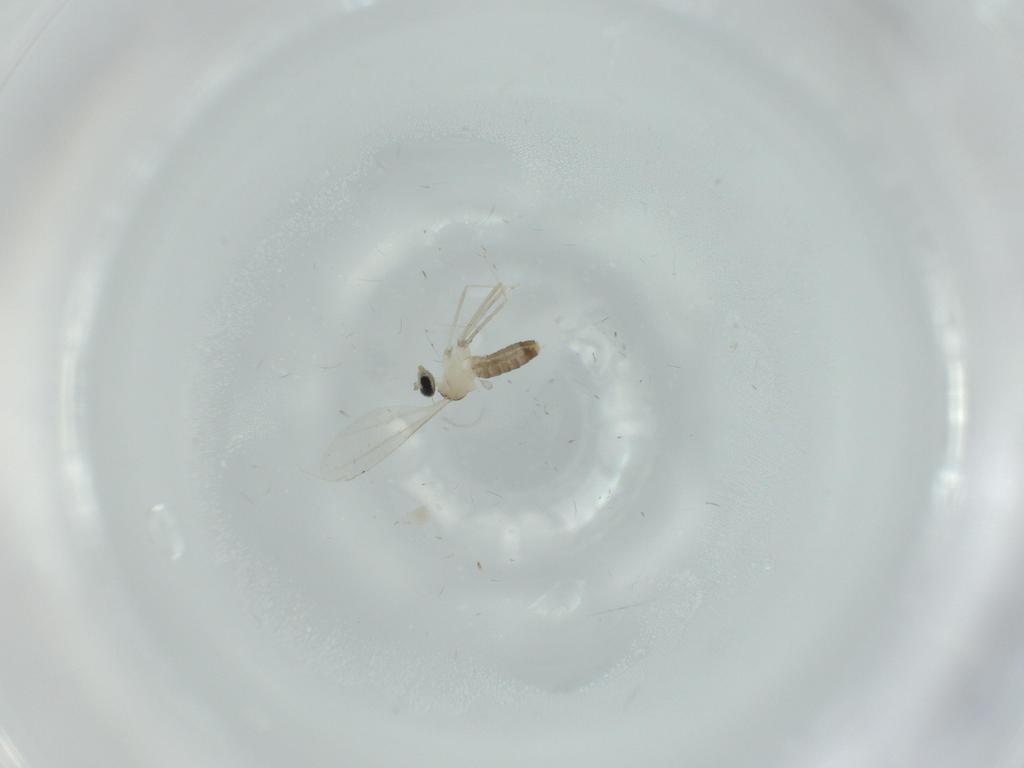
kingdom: Animalia
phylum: Arthropoda
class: Insecta
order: Diptera
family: Cecidomyiidae
